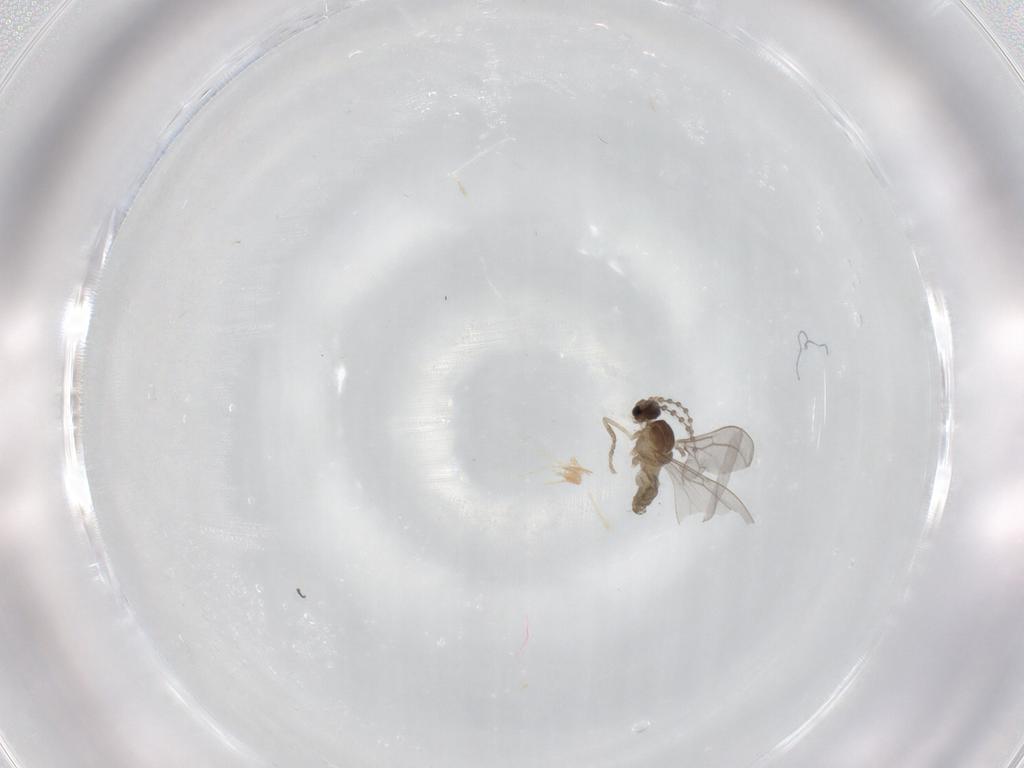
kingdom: Animalia
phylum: Arthropoda
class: Insecta
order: Diptera
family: Cecidomyiidae
